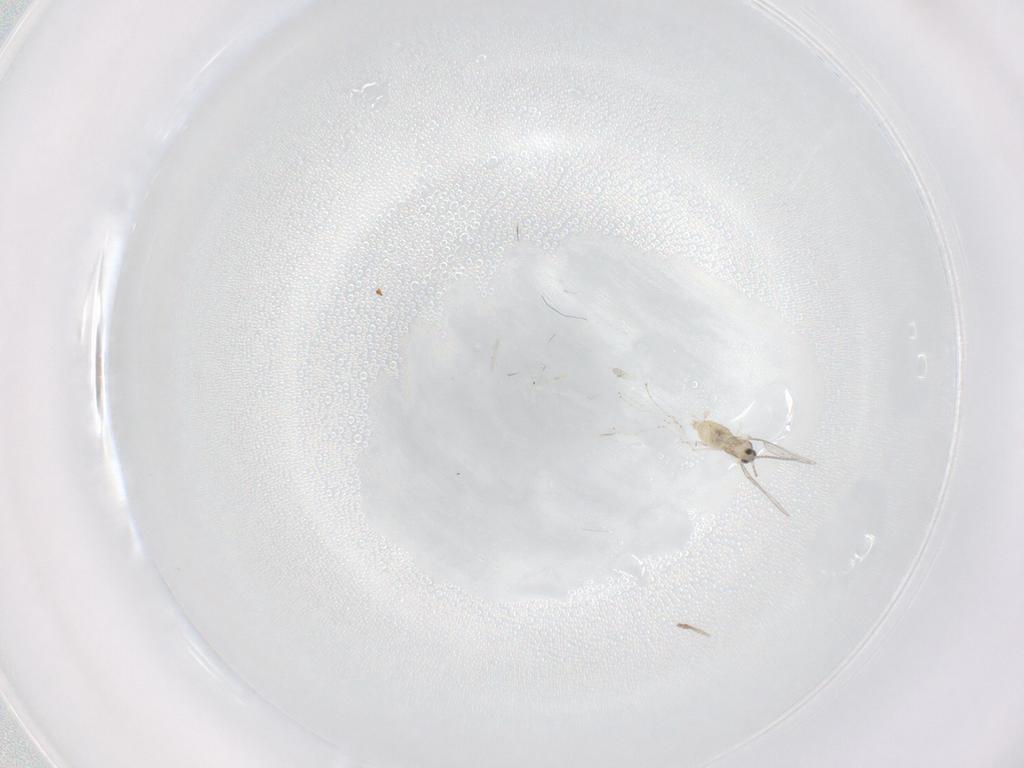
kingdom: Animalia
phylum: Arthropoda
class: Insecta
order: Diptera
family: Cecidomyiidae
